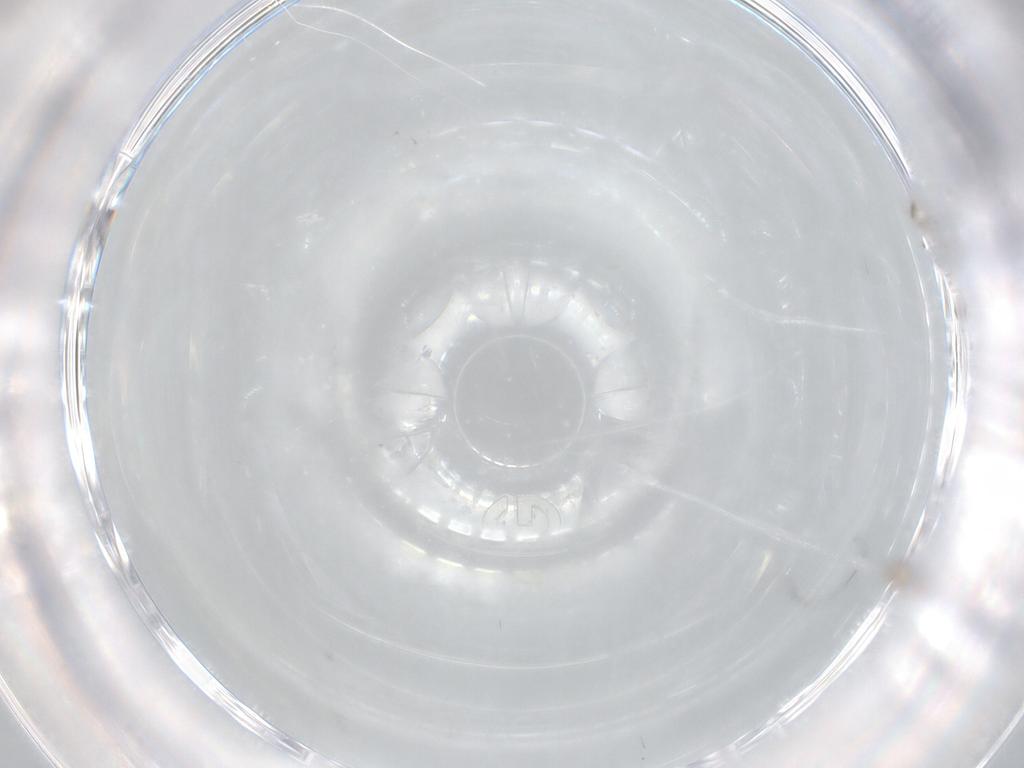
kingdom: Animalia
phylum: Arthropoda
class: Insecta
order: Hymenoptera
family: Mymaridae
